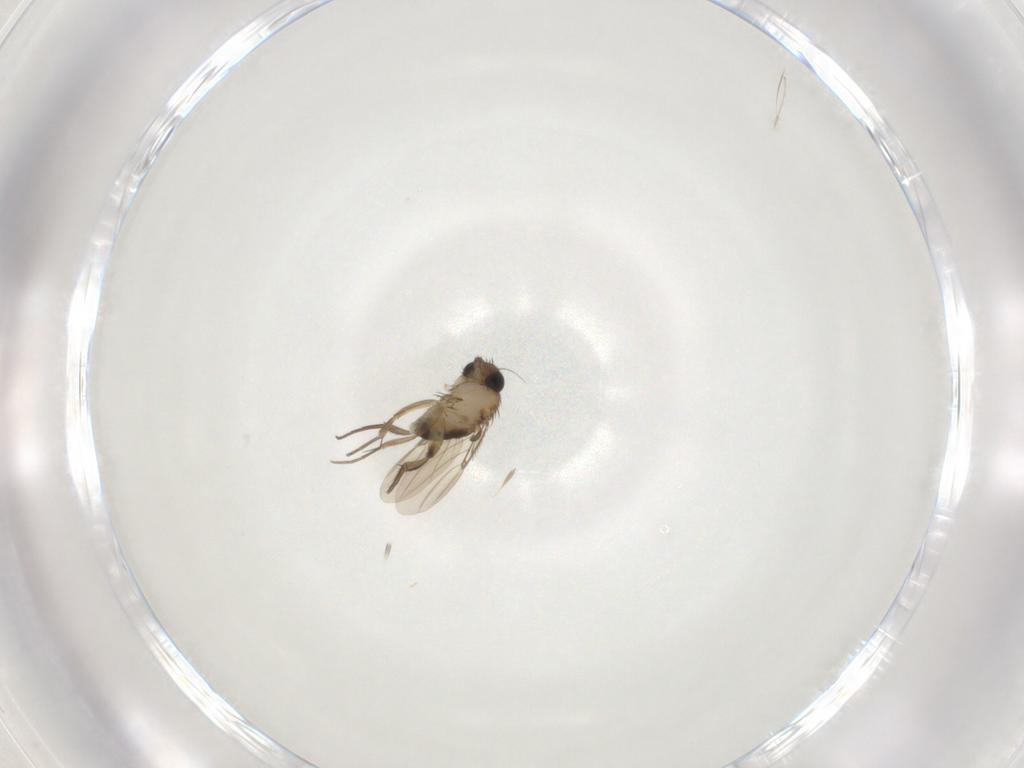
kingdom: Animalia
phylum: Arthropoda
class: Insecta
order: Diptera
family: Phoridae
